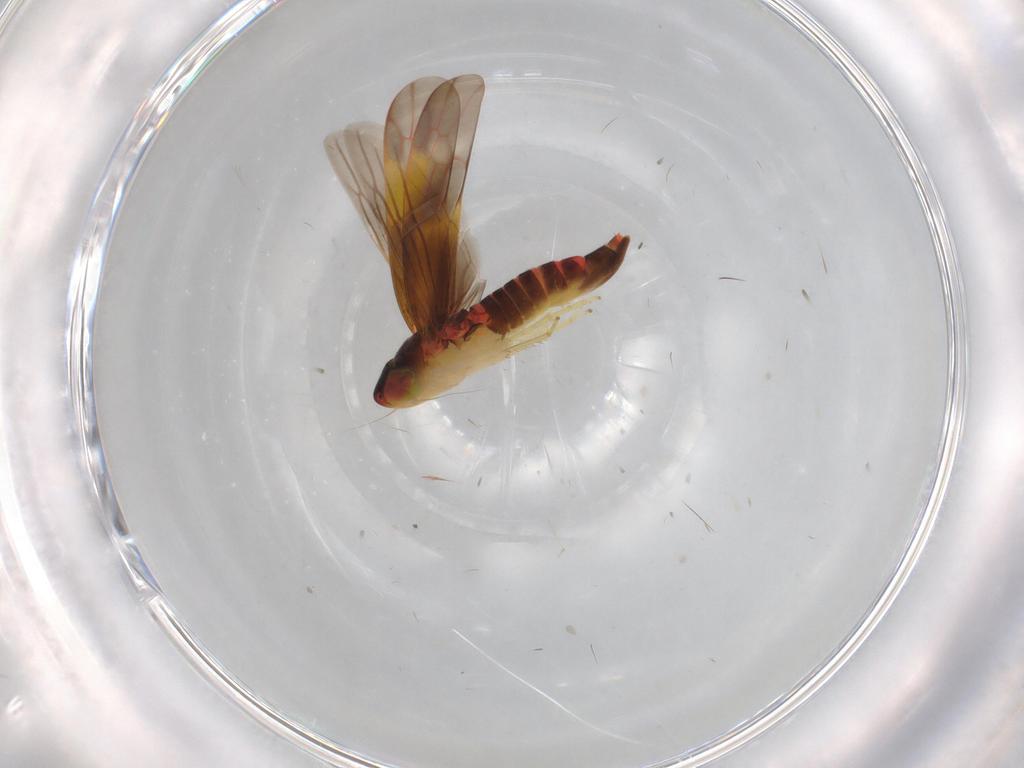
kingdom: Animalia
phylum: Arthropoda
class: Insecta
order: Hemiptera
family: Cicadellidae
